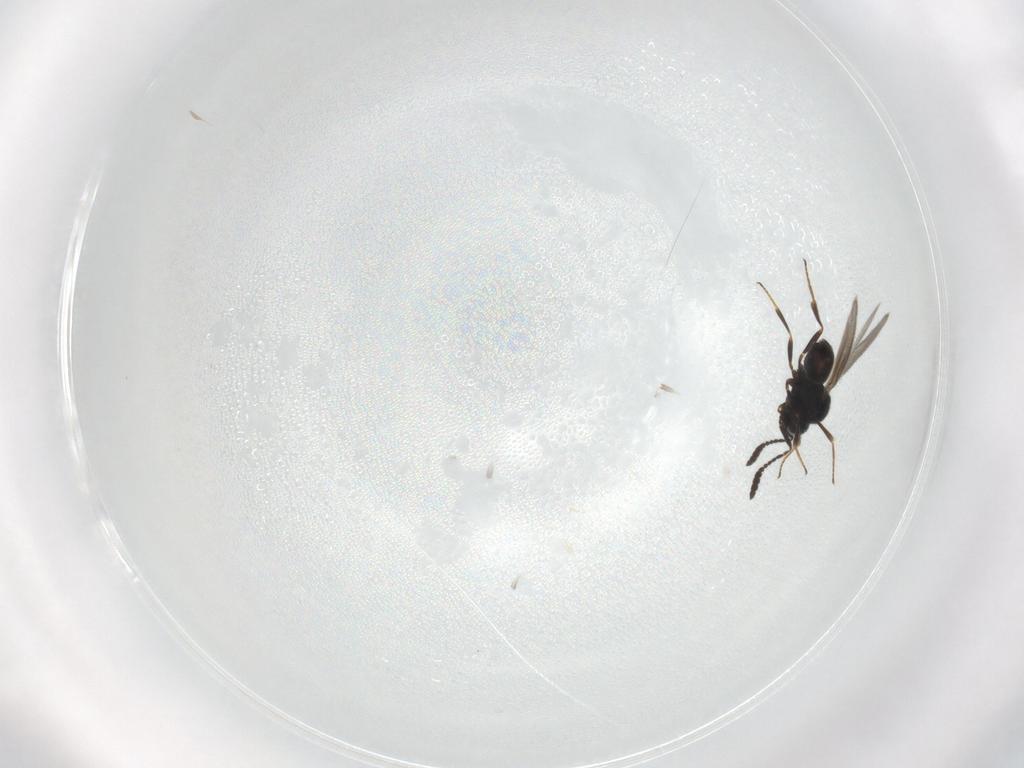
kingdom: Animalia
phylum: Arthropoda
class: Insecta
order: Hymenoptera
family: Scelionidae
